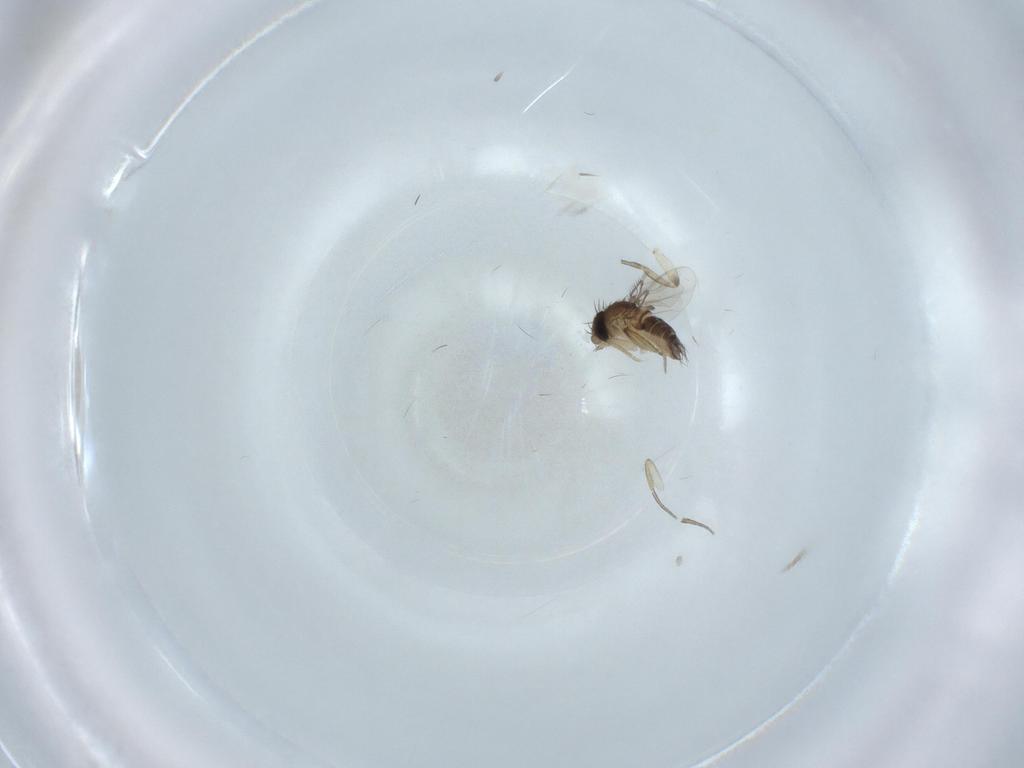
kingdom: Animalia
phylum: Arthropoda
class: Insecta
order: Diptera
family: Phoridae
